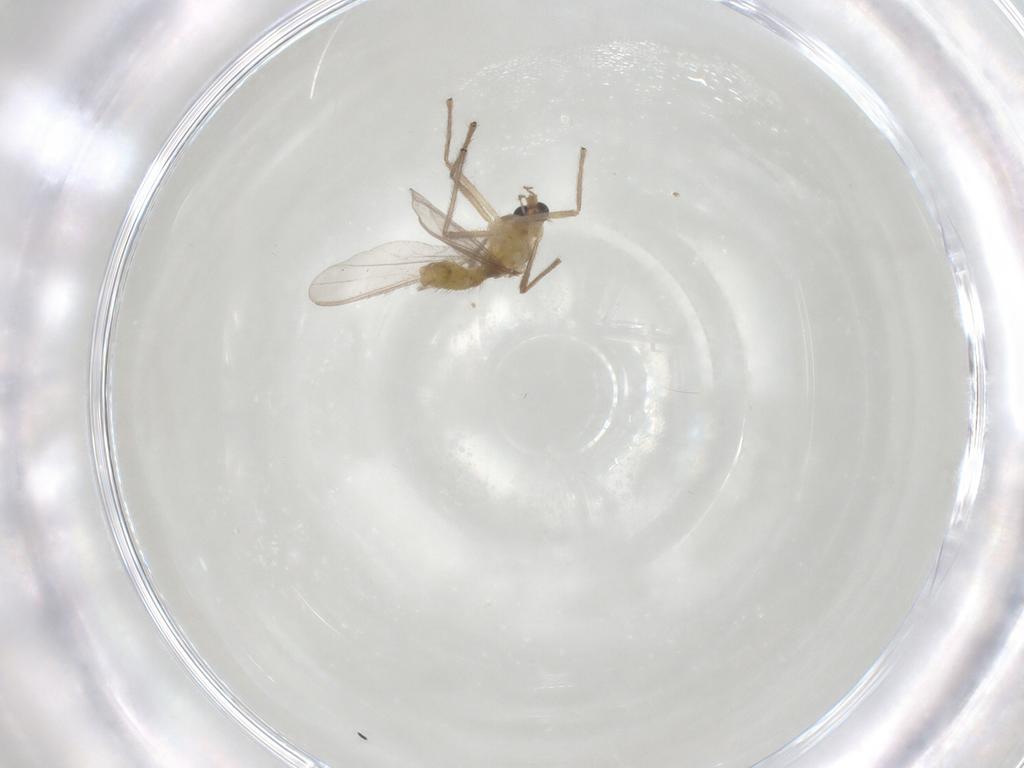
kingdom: Animalia
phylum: Arthropoda
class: Insecta
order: Diptera
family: Chironomidae
